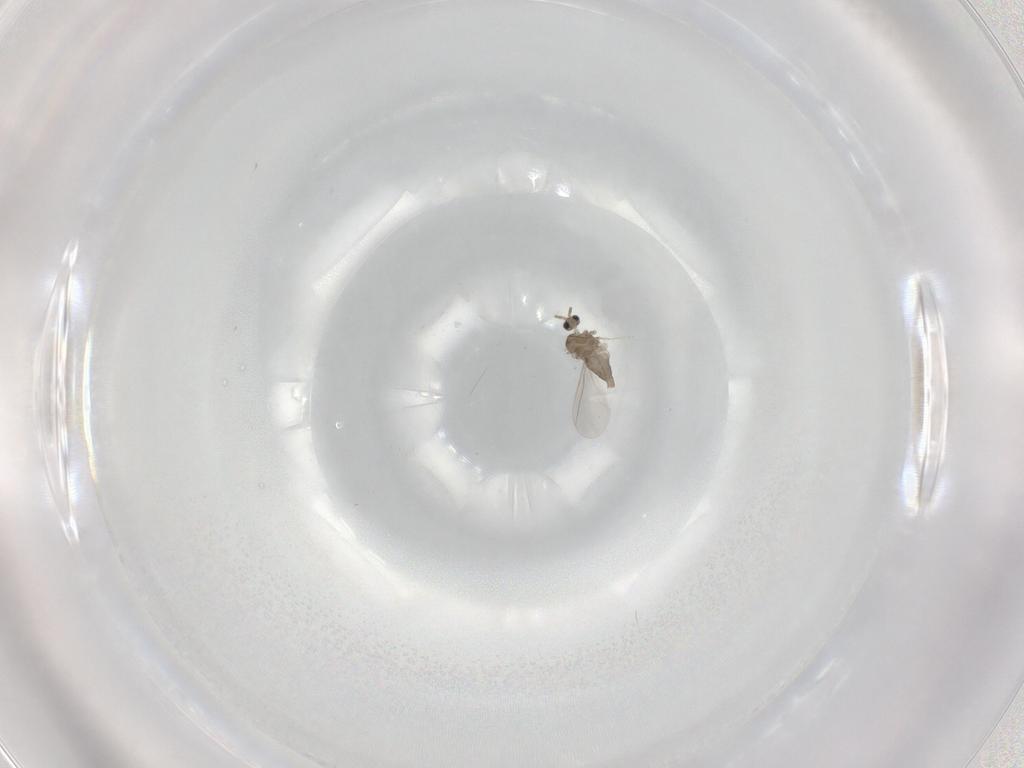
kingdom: Animalia
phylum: Arthropoda
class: Insecta
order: Diptera
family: Cecidomyiidae
